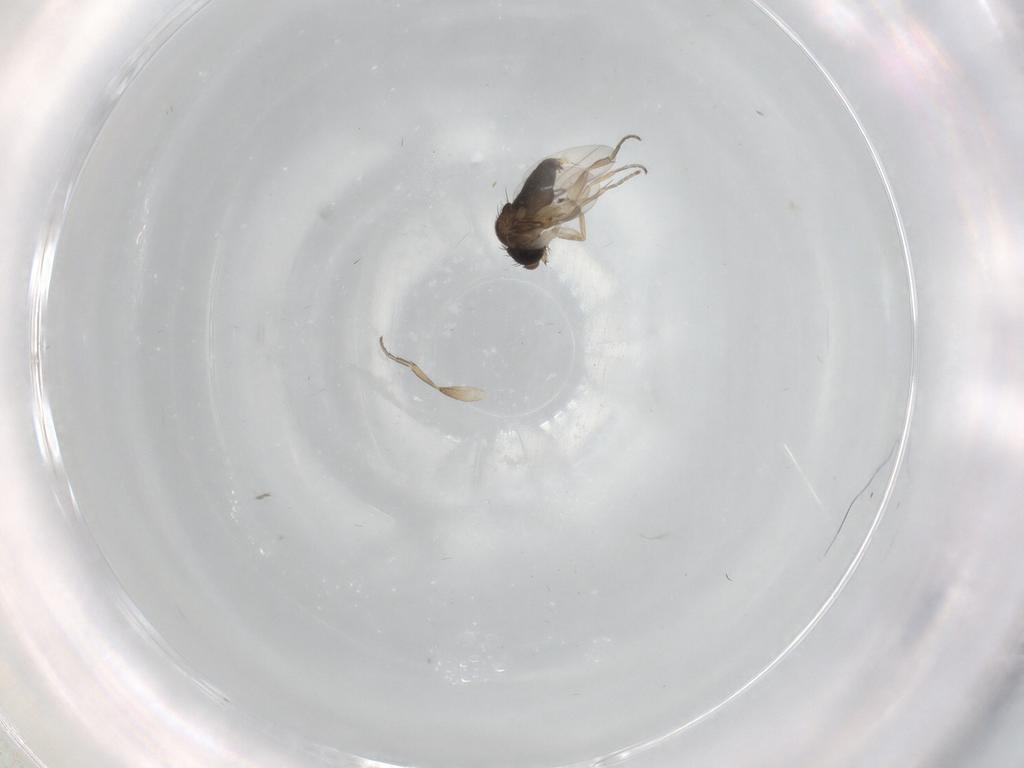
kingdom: Animalia
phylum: Arthropoda
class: Insecta
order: Diptera
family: Phoridae
